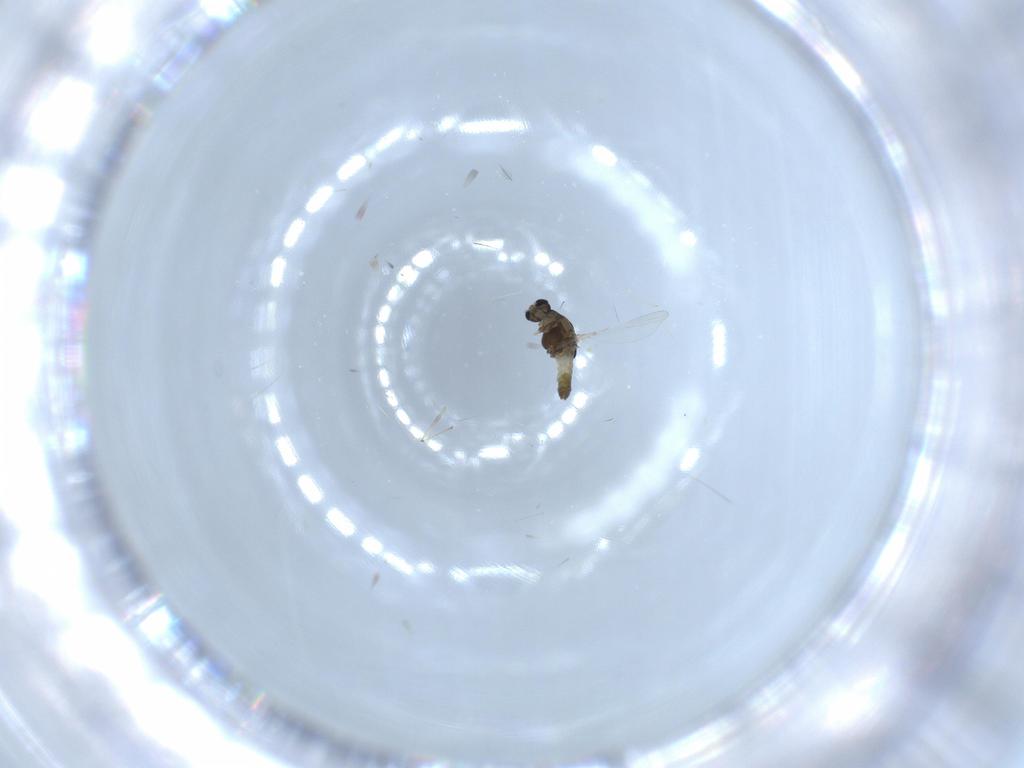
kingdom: Animalia
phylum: Arthropoda
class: Insecta
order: Diptera
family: Chironomidae
